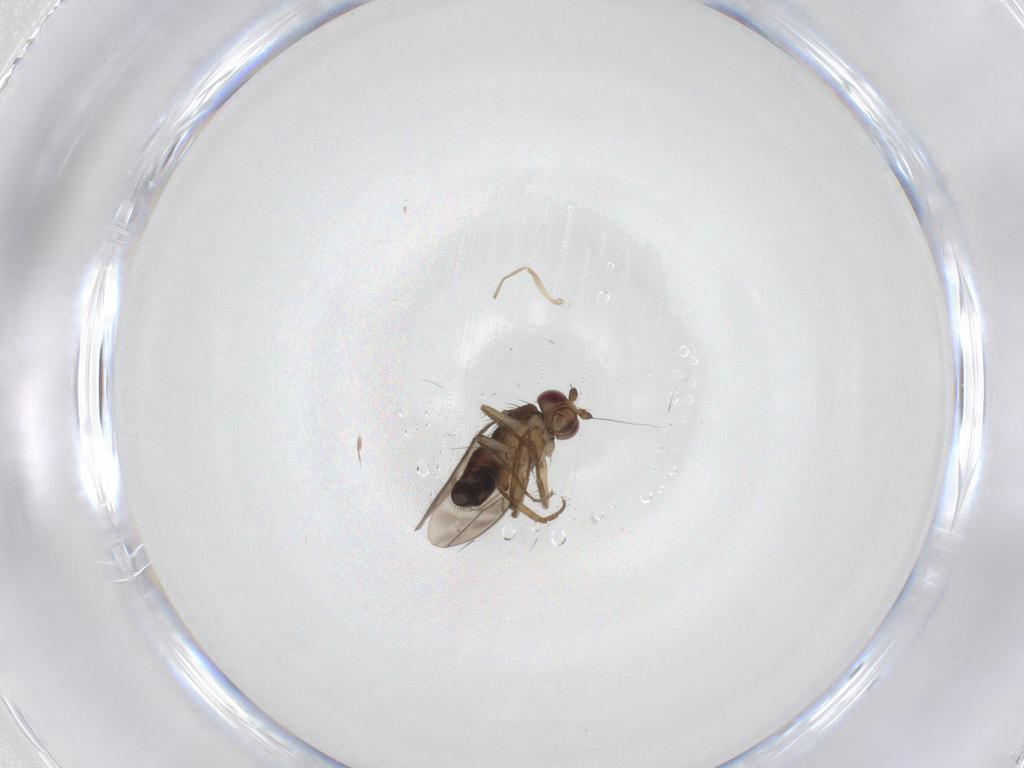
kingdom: Animalia
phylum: Arthropoda
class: Insecta
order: Diptera
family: Sphaeroceridae
